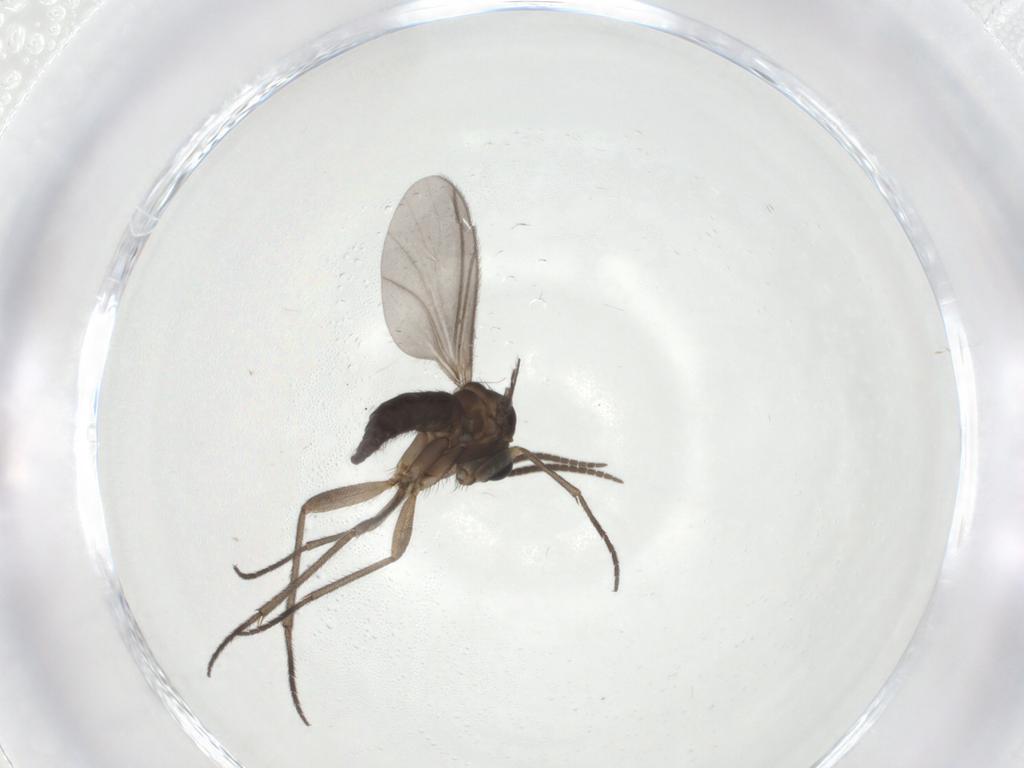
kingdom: Animalia
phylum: Arthropoda
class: Insecta
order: Diptera
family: Sciaridae
